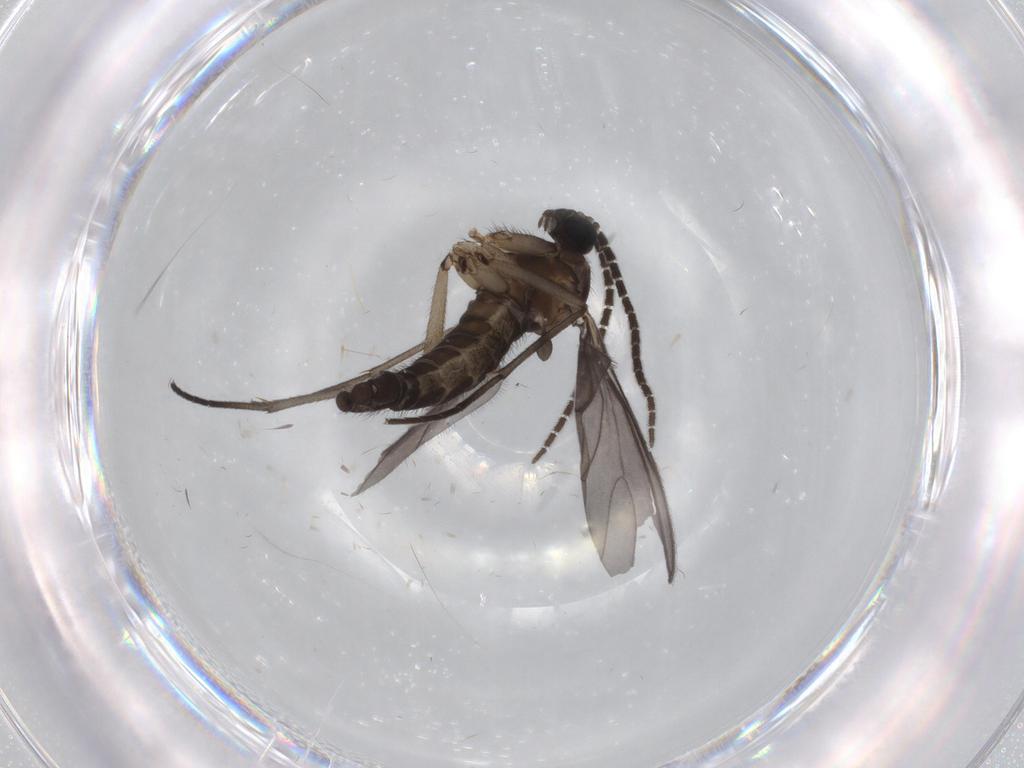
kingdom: Animalia
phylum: Arthropoda
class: Insecta
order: Diptera
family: Sciaridae
